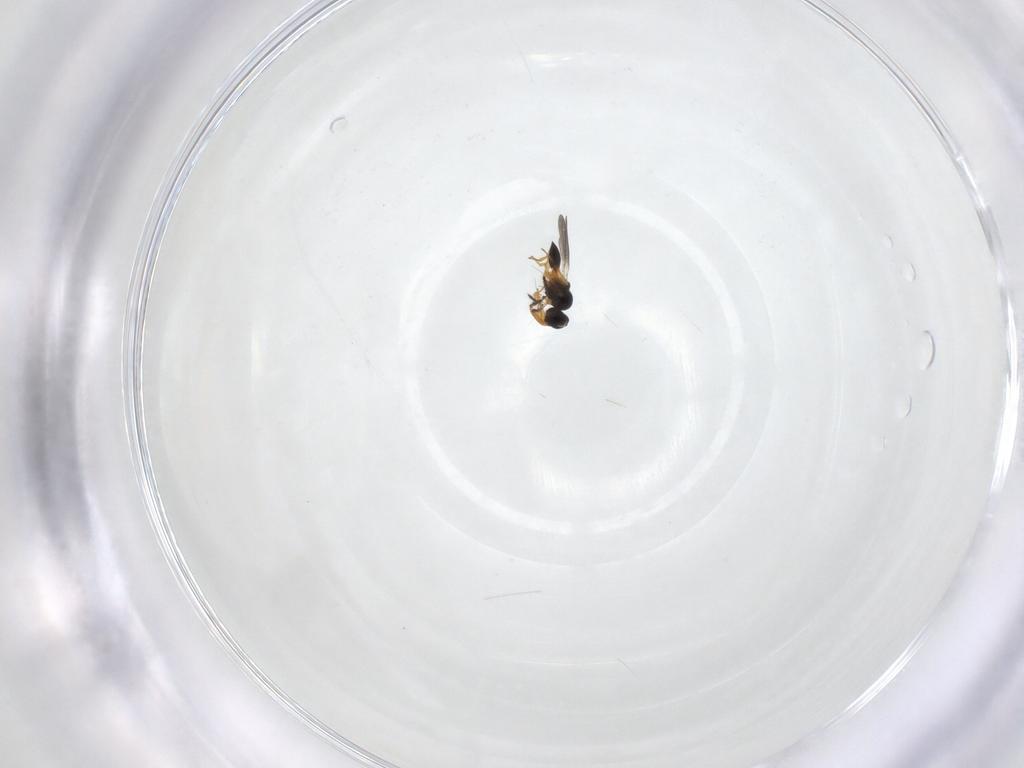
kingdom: Animalia
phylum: Arthropoda
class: Insecta
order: Hymenoptera
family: Platygastridae
